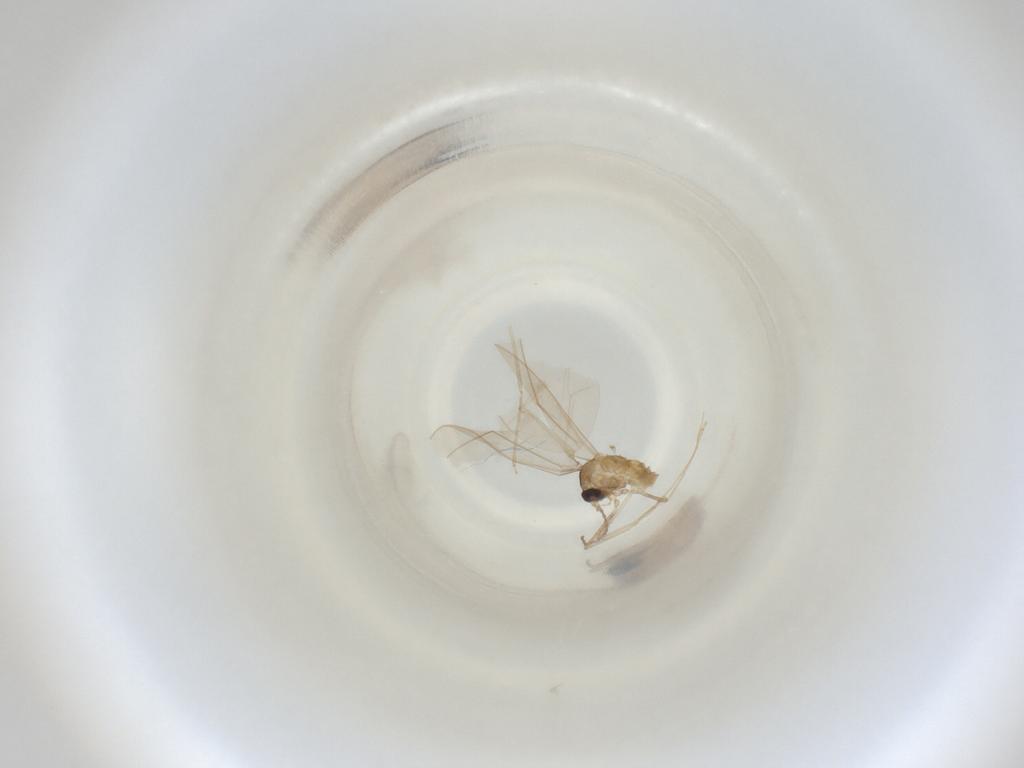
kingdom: Animalia
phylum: Arthropoda
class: Insecta
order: Diptera
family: Cecidomyiidae
